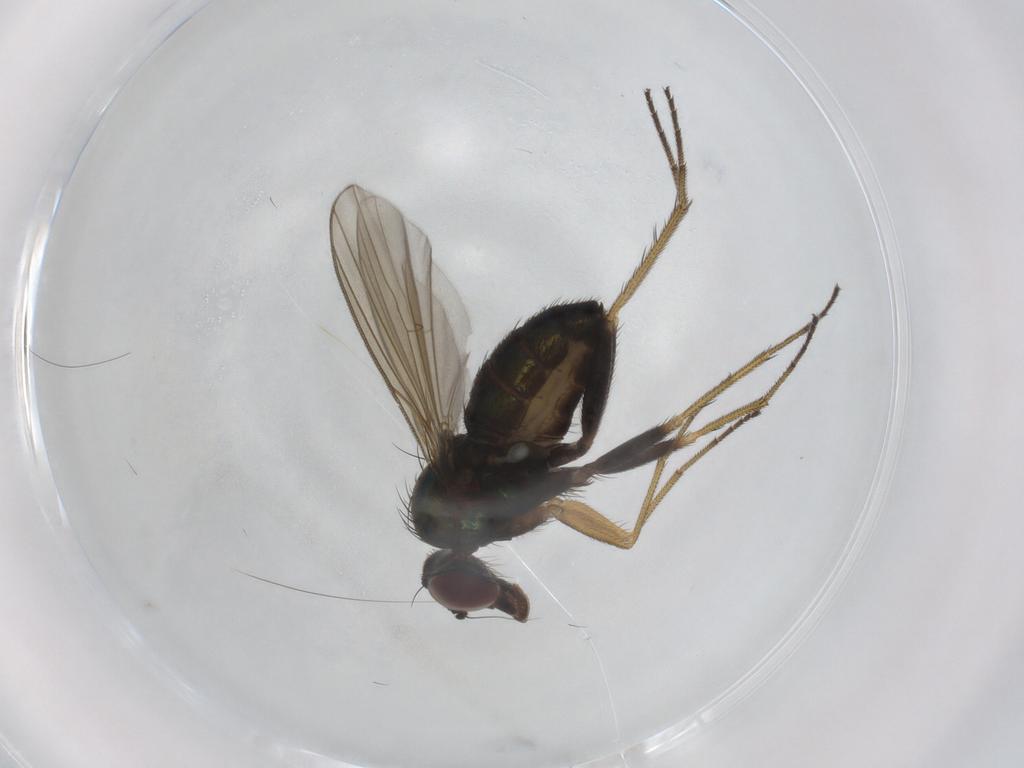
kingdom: Animalia
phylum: Arthropoda
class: Insecta
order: Diptera
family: Dolichopodidae
